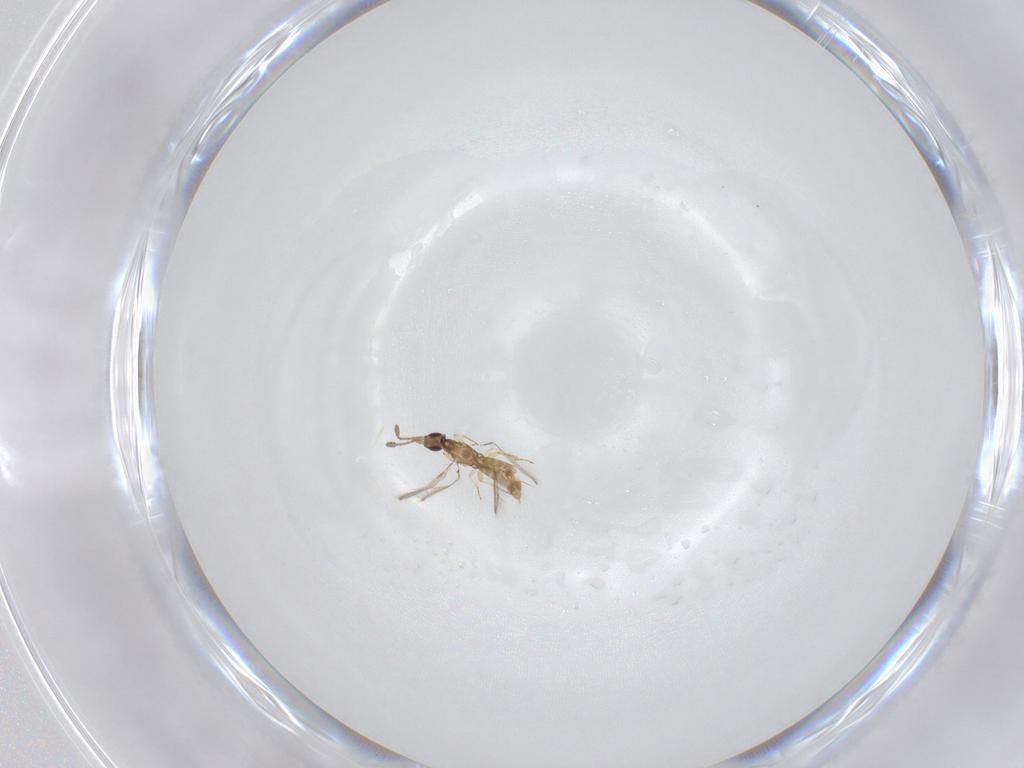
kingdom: Animalia
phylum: Arthropoda
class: Insecta
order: Hymenoptera
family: Mymaridae
